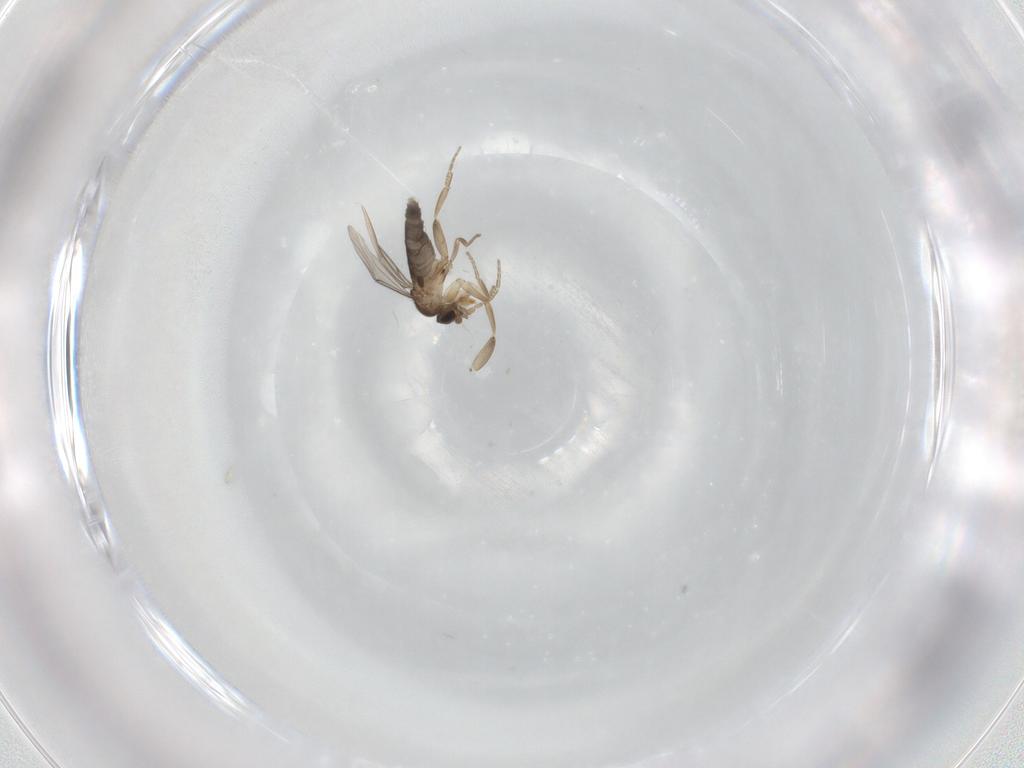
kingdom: Animalia
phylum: Arthropoda
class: Insecta
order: Diptera
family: Phoridae
